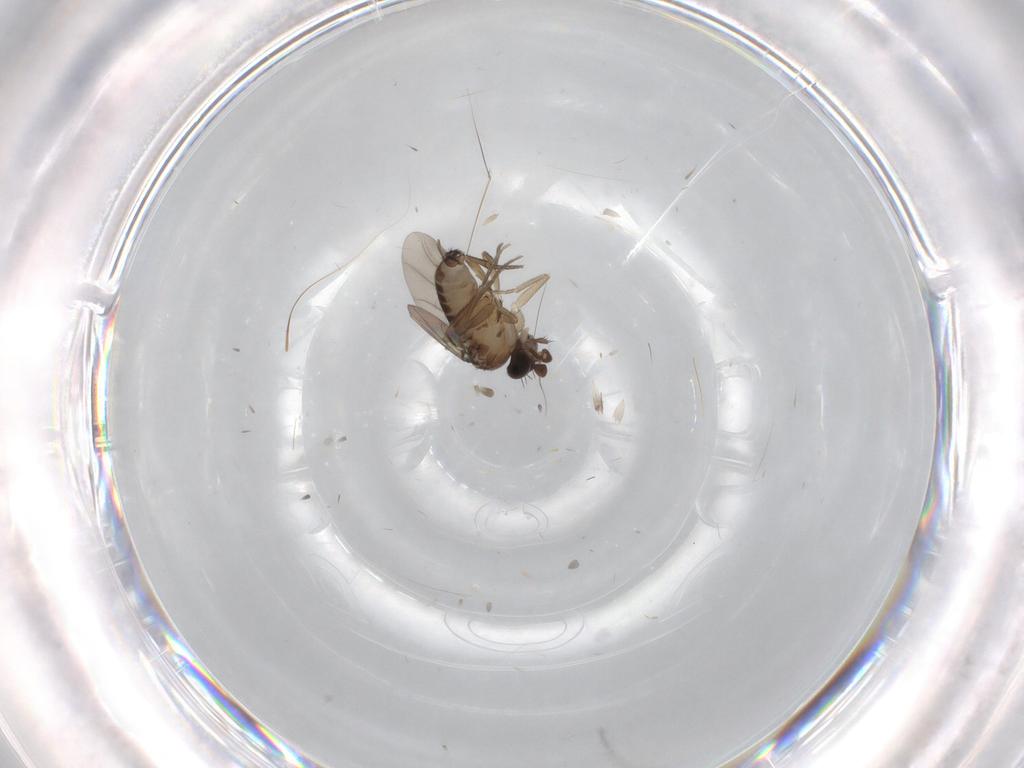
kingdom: Animalia
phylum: Arthropoda
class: Insecta
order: Diptera
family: Phoridae
